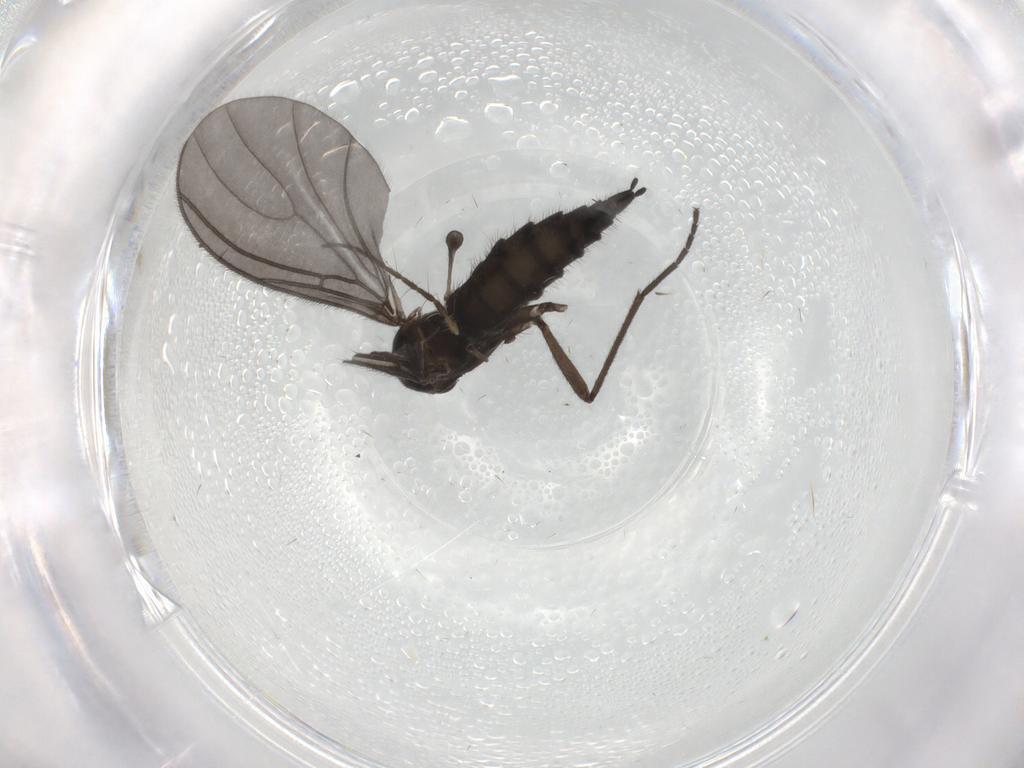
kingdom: Animalia
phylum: Arthropoda
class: Insecta
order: Diptera
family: Sciaridae
